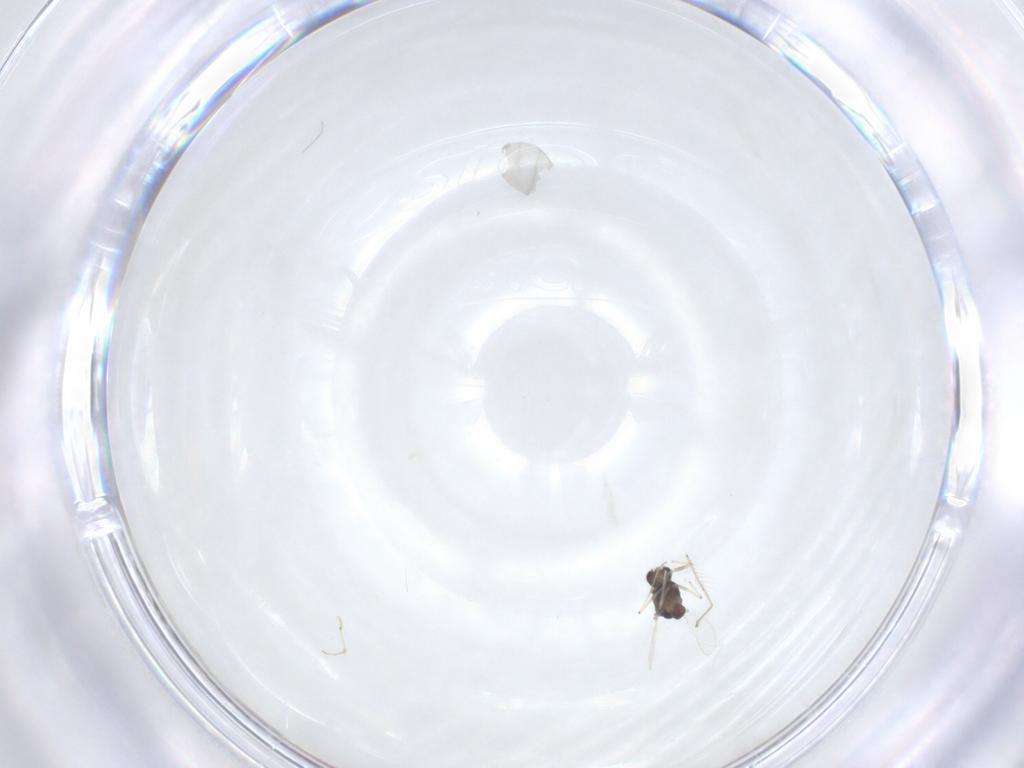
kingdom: Animalia
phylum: Arthropoda
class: Insecta
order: Diptera
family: Chironomidae
